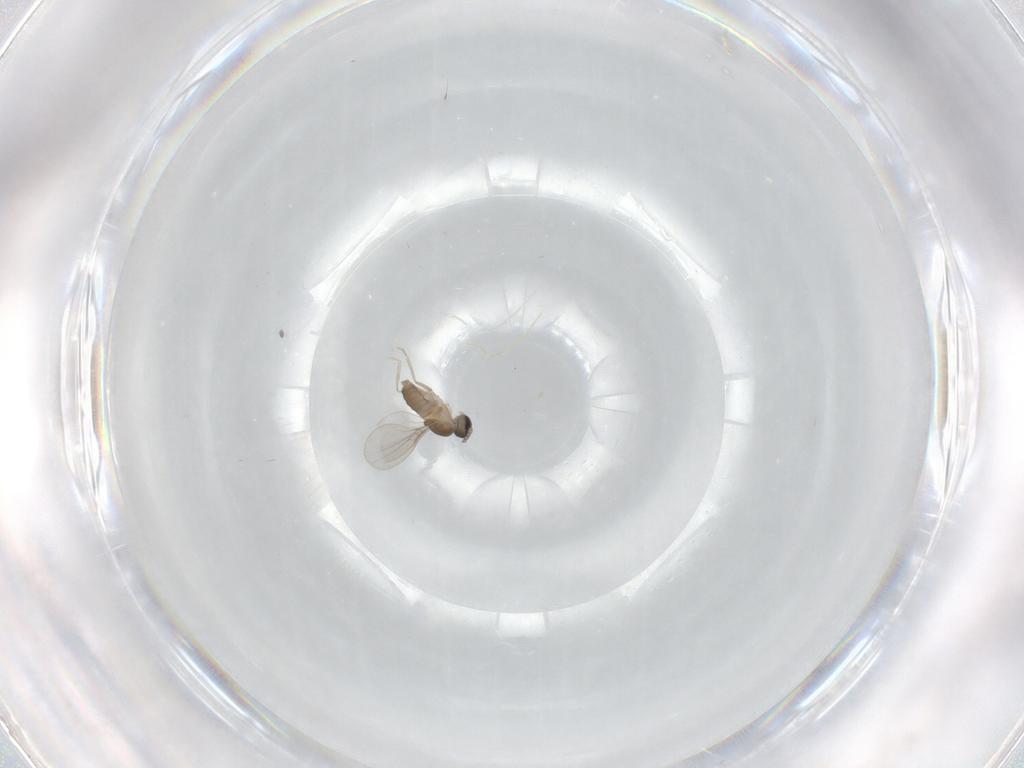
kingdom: Animalia
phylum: Arthropoda
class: Insecta
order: Diptera
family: Cecidomyiidae
